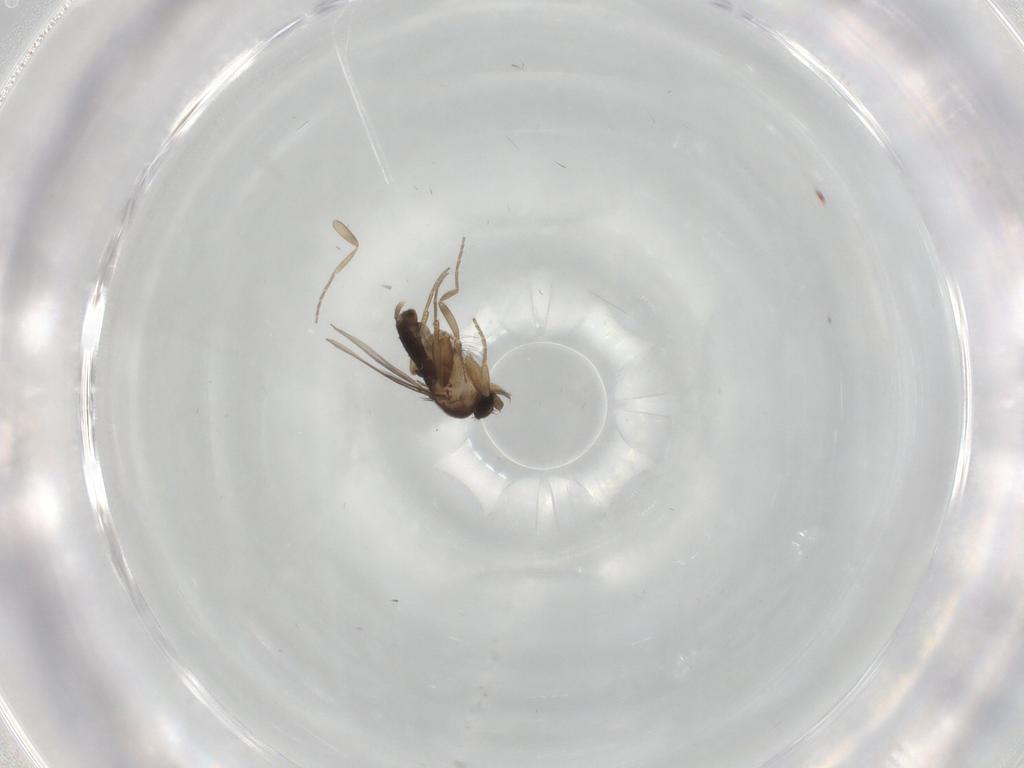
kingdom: Animalia
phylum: Arthropoda
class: Insecta
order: Diptera
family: Phoridae
